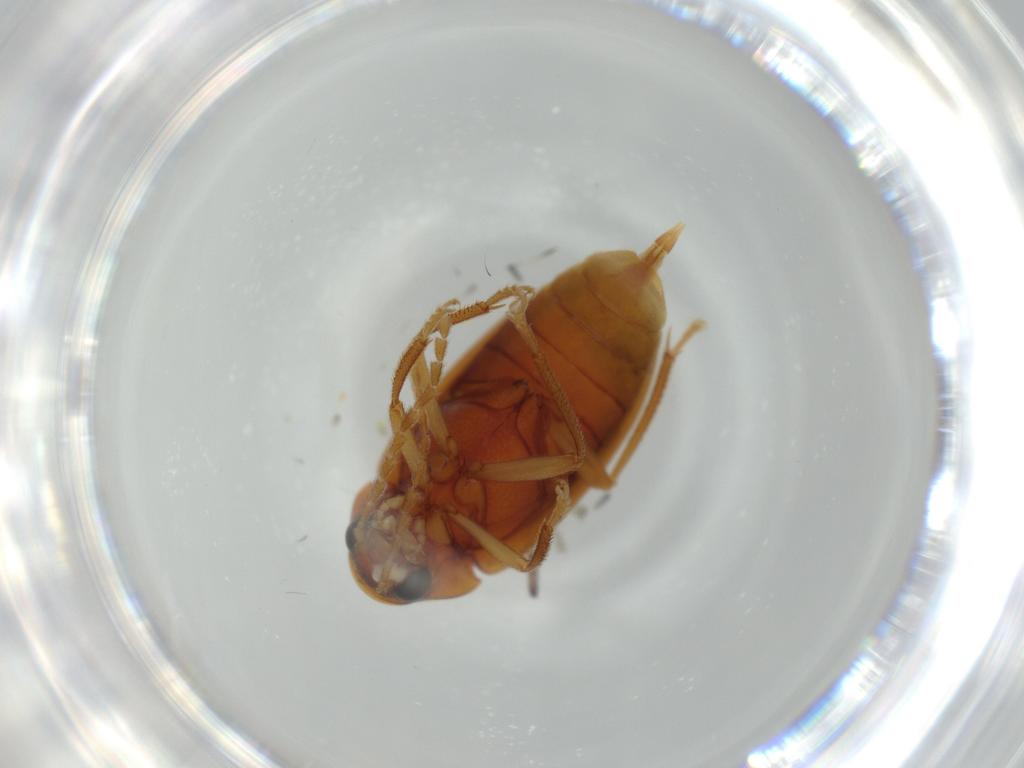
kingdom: Animalia
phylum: Arthropoda
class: Insecta
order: Coleoptera
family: Ptilodactylidae
